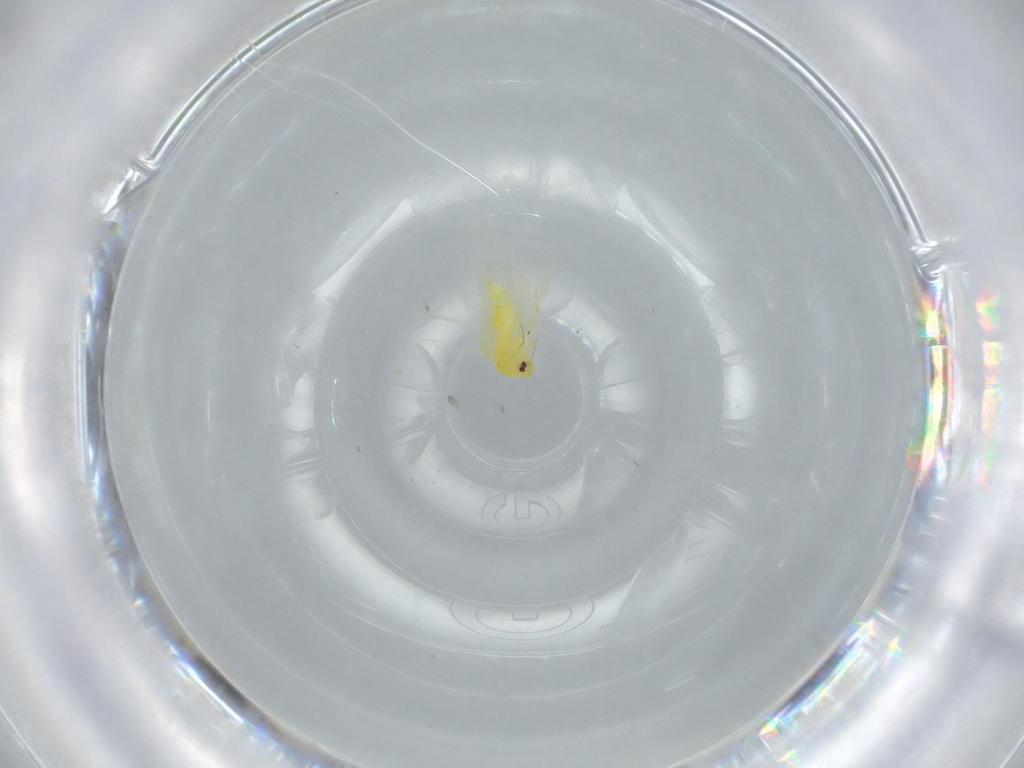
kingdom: Animalia
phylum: Arthropoda
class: Insecta
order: Hemiptera
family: Aleyrodidae
